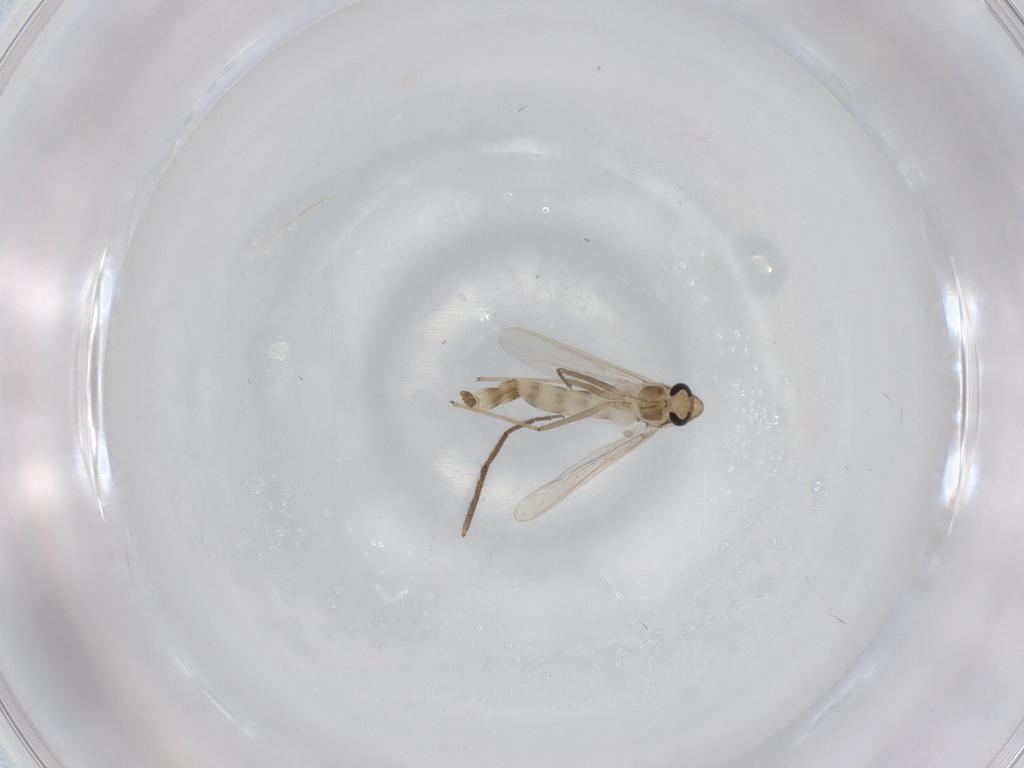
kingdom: Animalia
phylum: Arthropoda
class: Insecta
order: Diptera
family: Chironomidae
